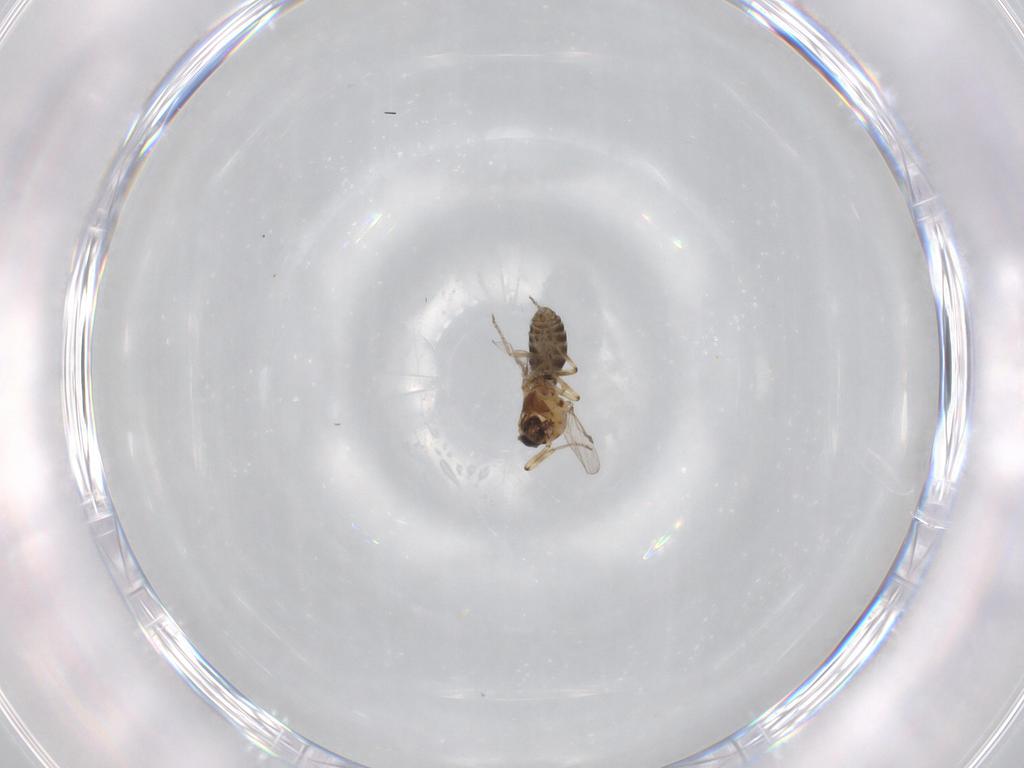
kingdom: Animalia
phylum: Arthropoda
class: Insecta
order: Diptera
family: Ceratopogonidae
